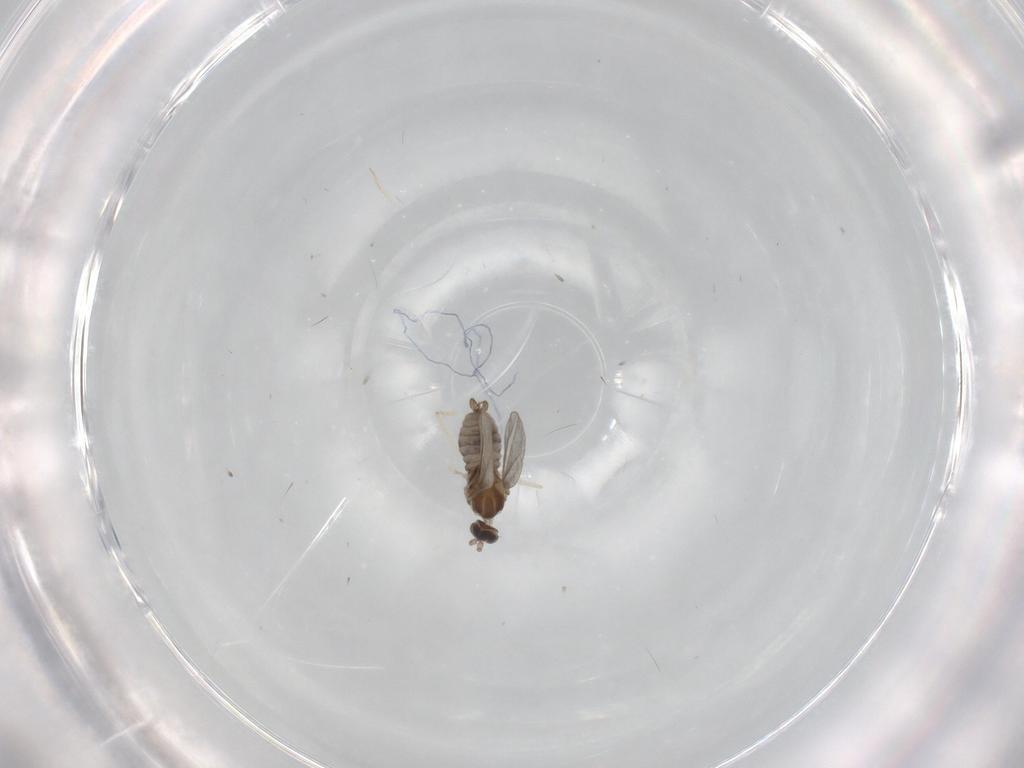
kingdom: Animalia
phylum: Arthropoda
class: Insecta
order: Diptera
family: Cecidomyiidae
